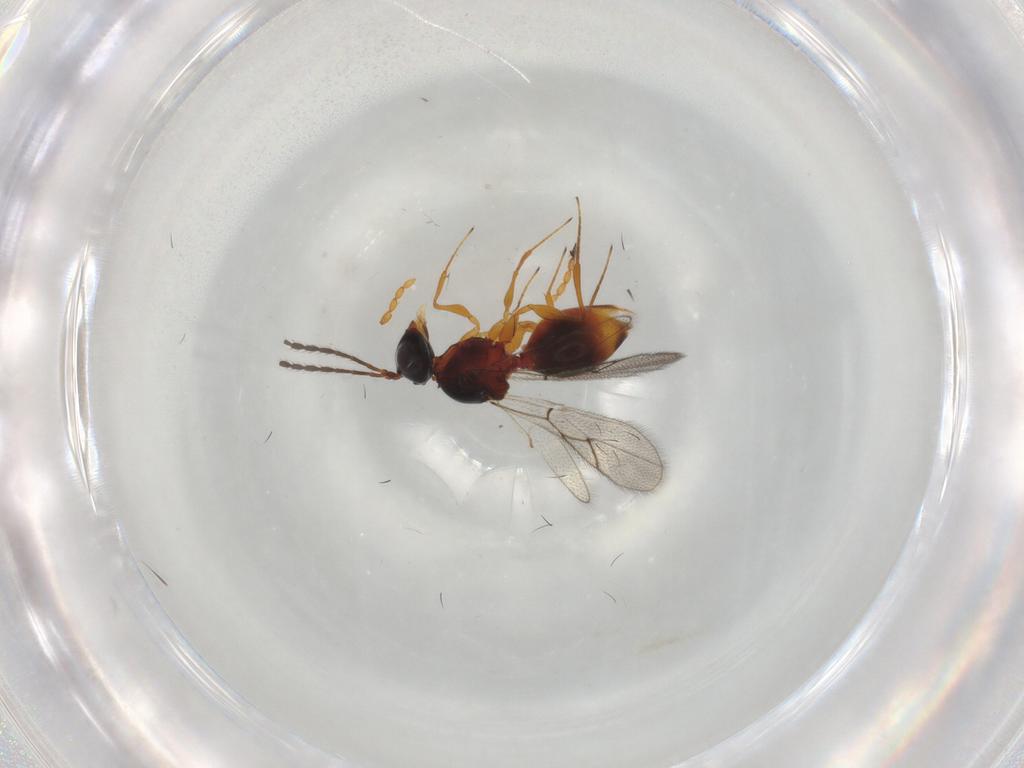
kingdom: Animalia
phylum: Arthropoda
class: Insecta
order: Hymenoptera
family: Figitidae
